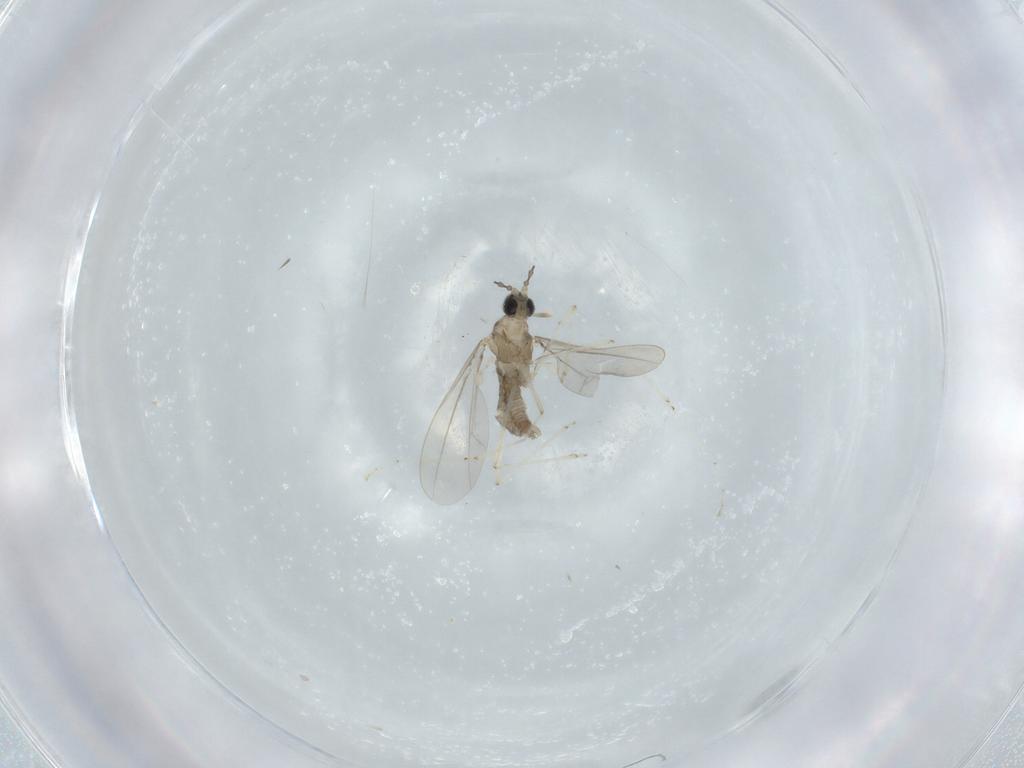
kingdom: Animalia
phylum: Arthropoda
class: Insecta
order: Diptera
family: Cecidomyiidae
